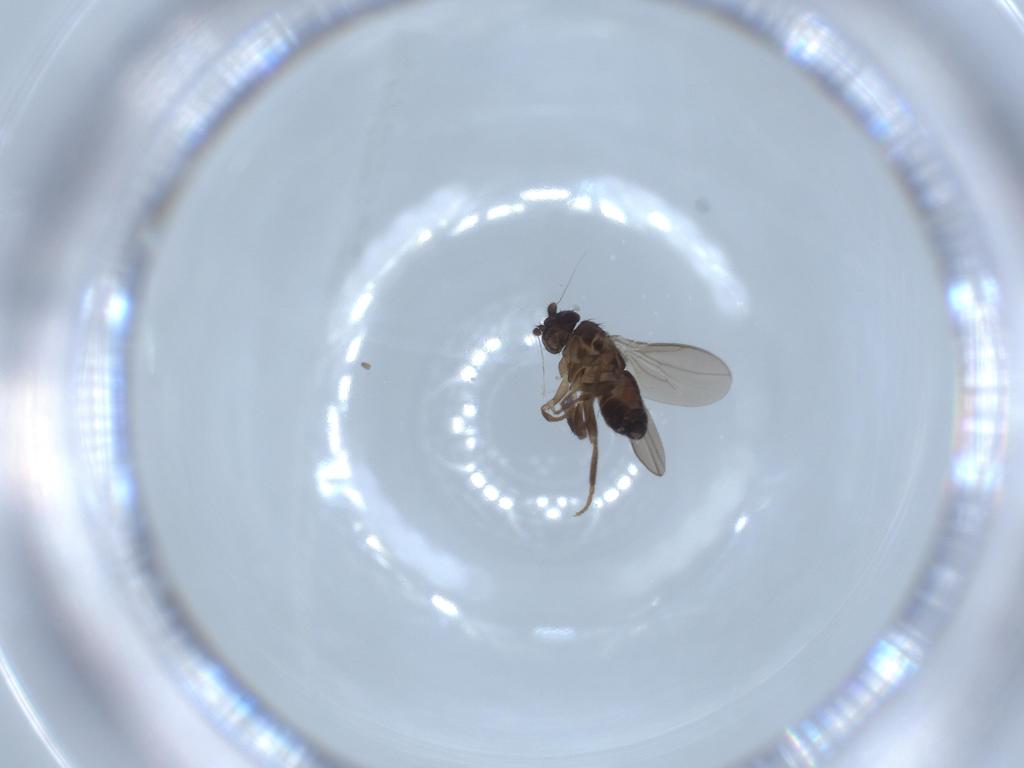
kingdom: Animalia
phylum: Arthropoda
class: Insecta
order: Diptera
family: Sphaeroceridae
